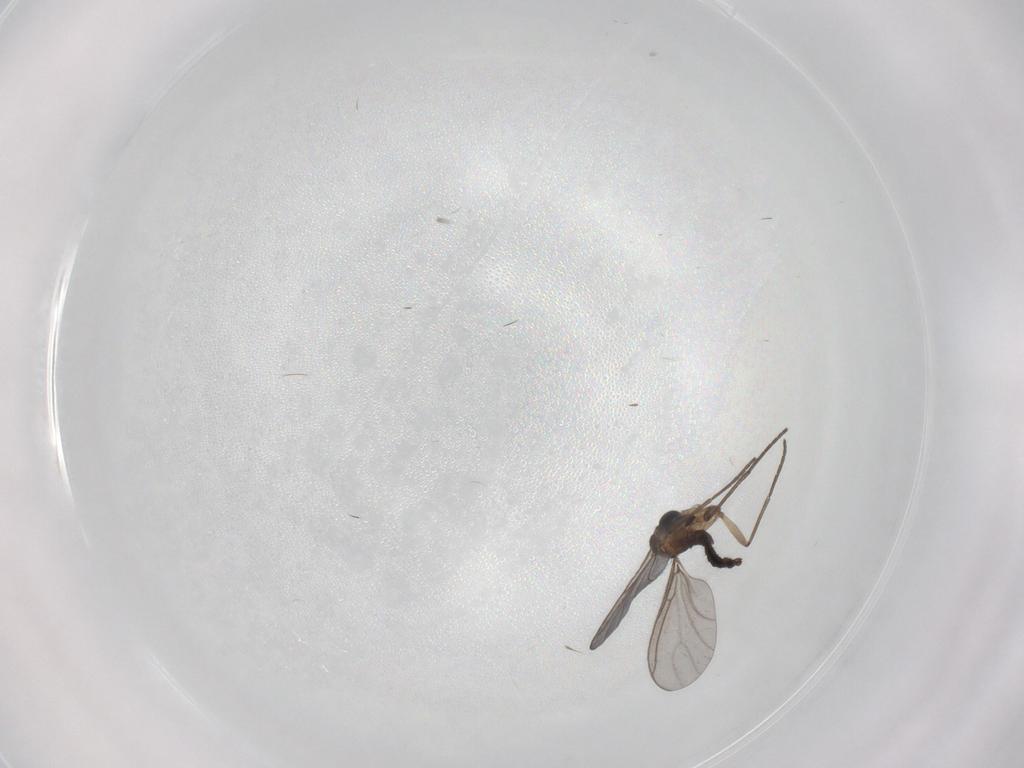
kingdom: Animalia
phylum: Arthropoda
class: Insecta
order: Diptera
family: Sciaridae
